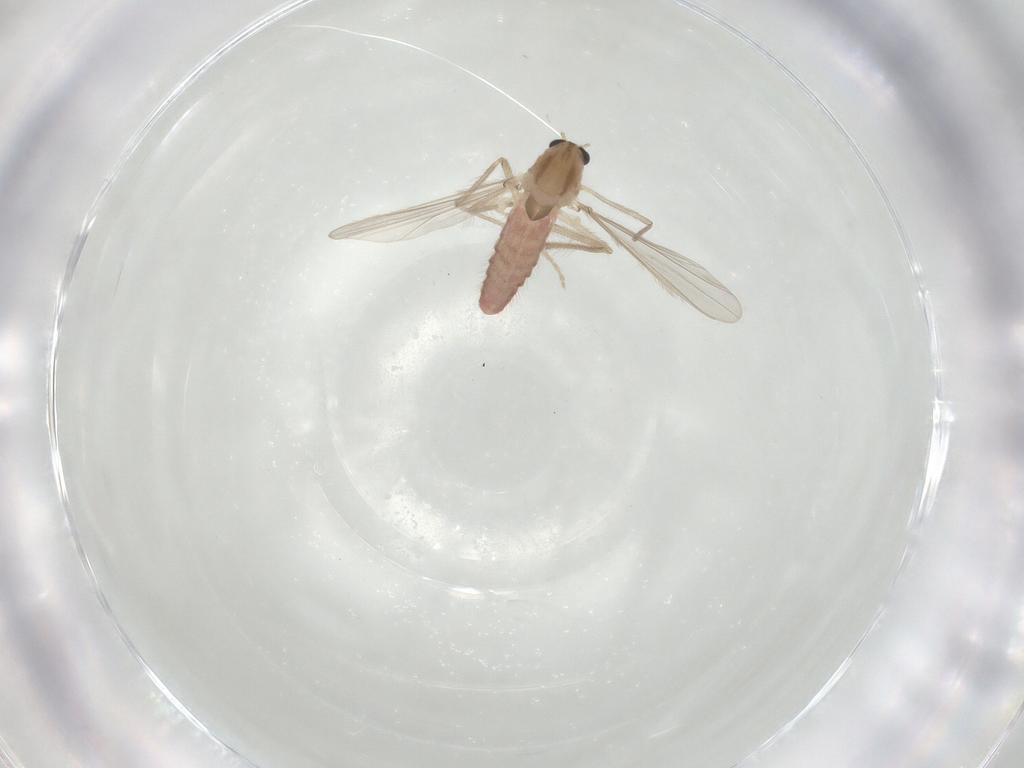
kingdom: Animalia
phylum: Arthropoda
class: Insecta
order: Diptera
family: Chironomidae
